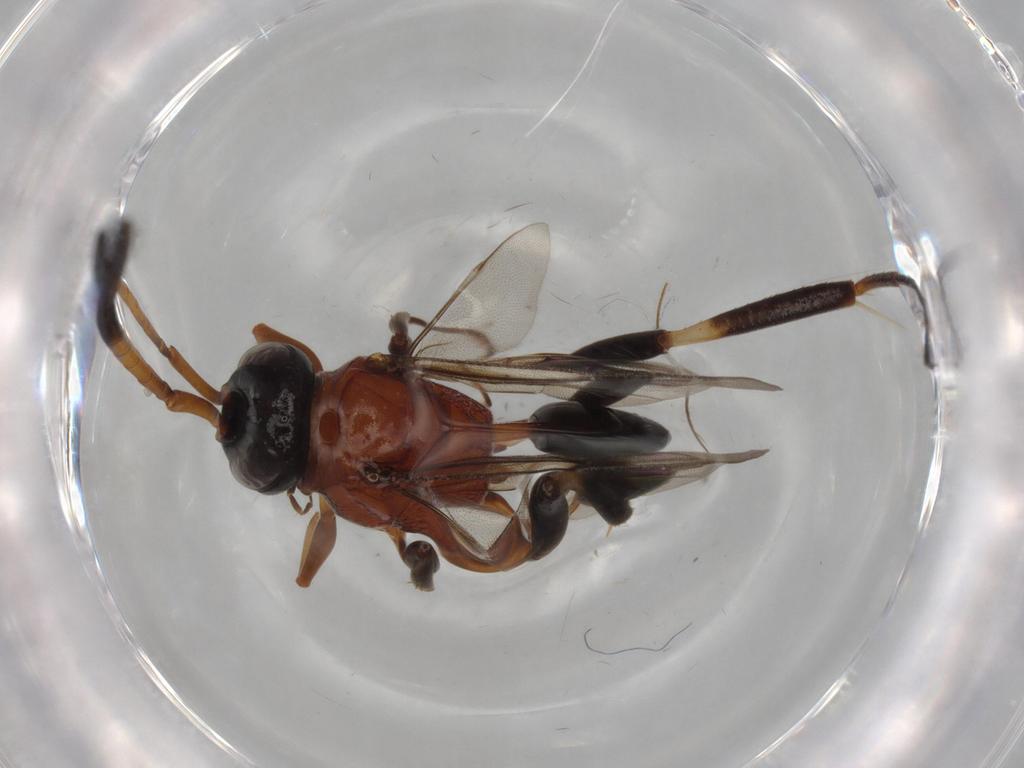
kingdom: Animalia
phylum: Arthropoda
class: Insecta
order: Hymenoptera
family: Evaniidae
